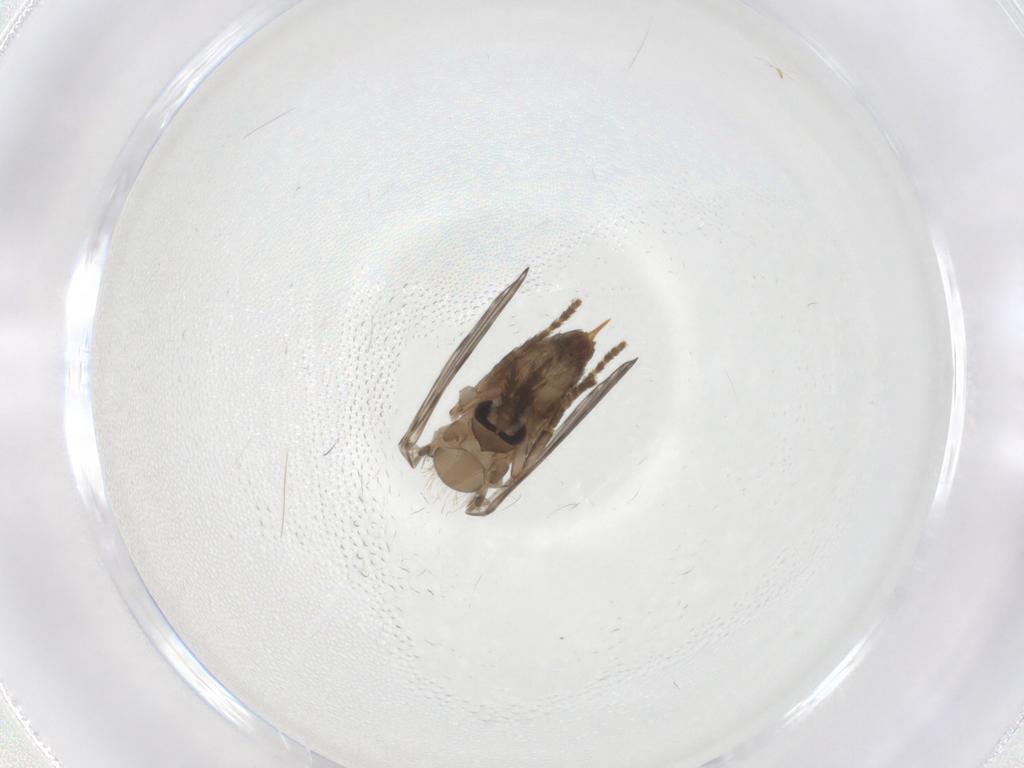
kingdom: Animalia
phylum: Arthropoda
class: Insecta
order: Diptera
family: Psychodidae
